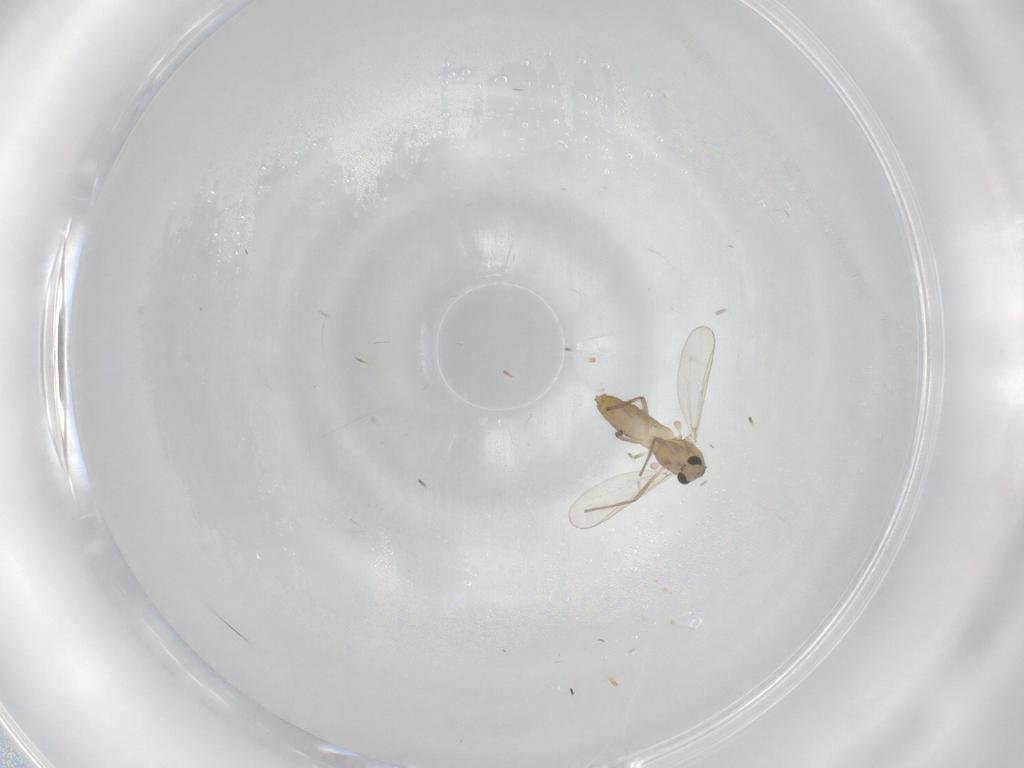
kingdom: Animalia
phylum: Arthropoda
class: Insecta
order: Diptera
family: Chironomidae
